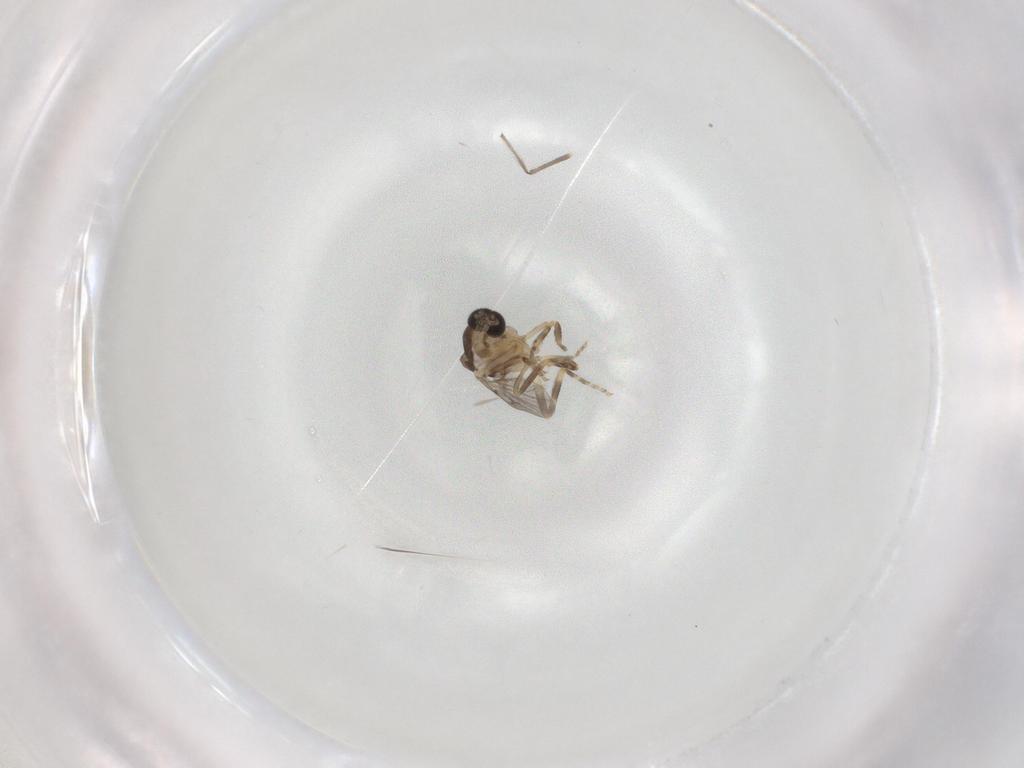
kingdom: Animalia
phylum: Arthropoda
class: Insecta
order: Diptera
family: Ceratopogonidae
